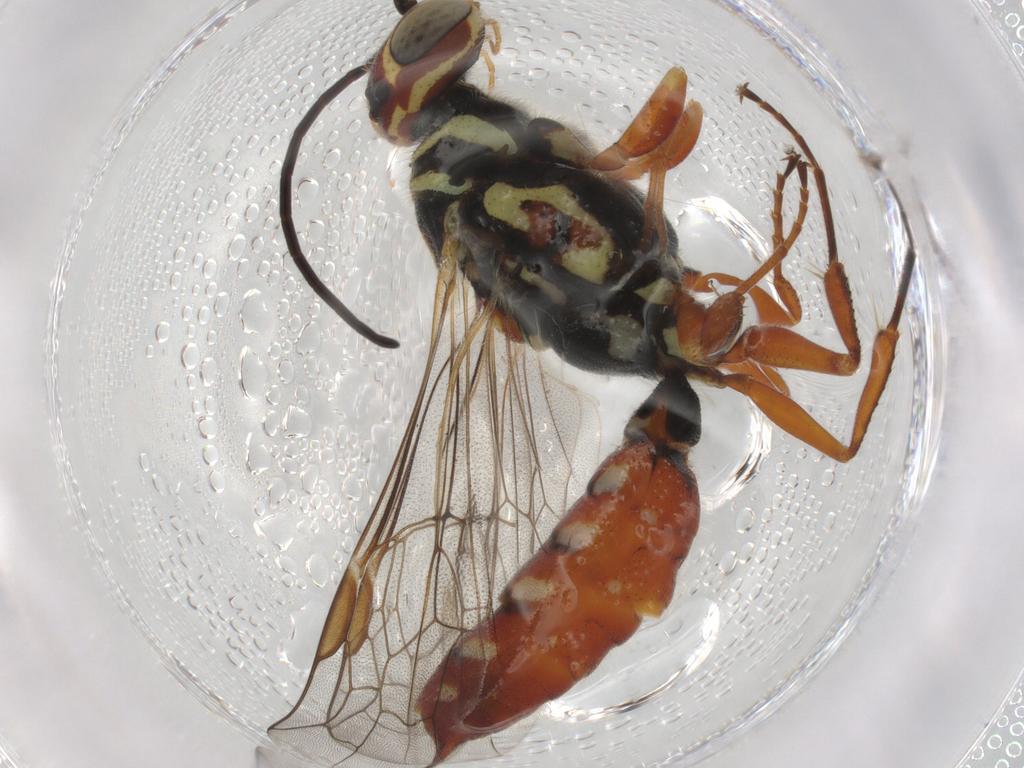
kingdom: Animalia
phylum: Arthropoda
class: Insecta
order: Hymenoptera
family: Thynnidae
